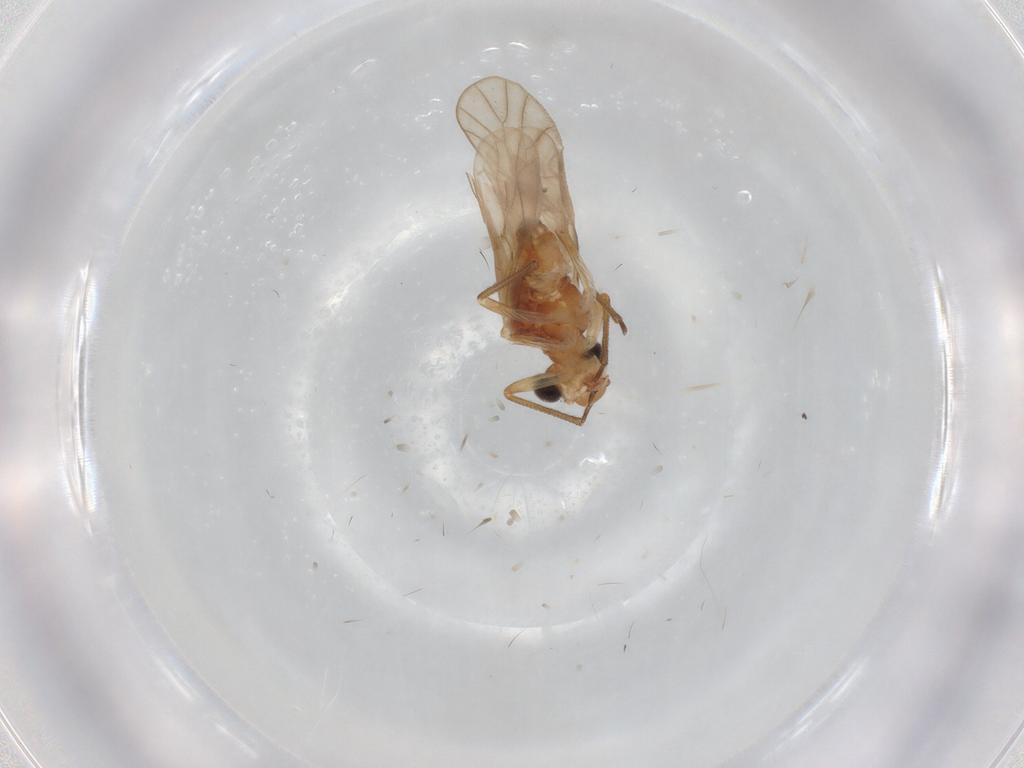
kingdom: Animalia
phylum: Arthropoda
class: Insecta
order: Psocodea
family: Caeciliusidae
